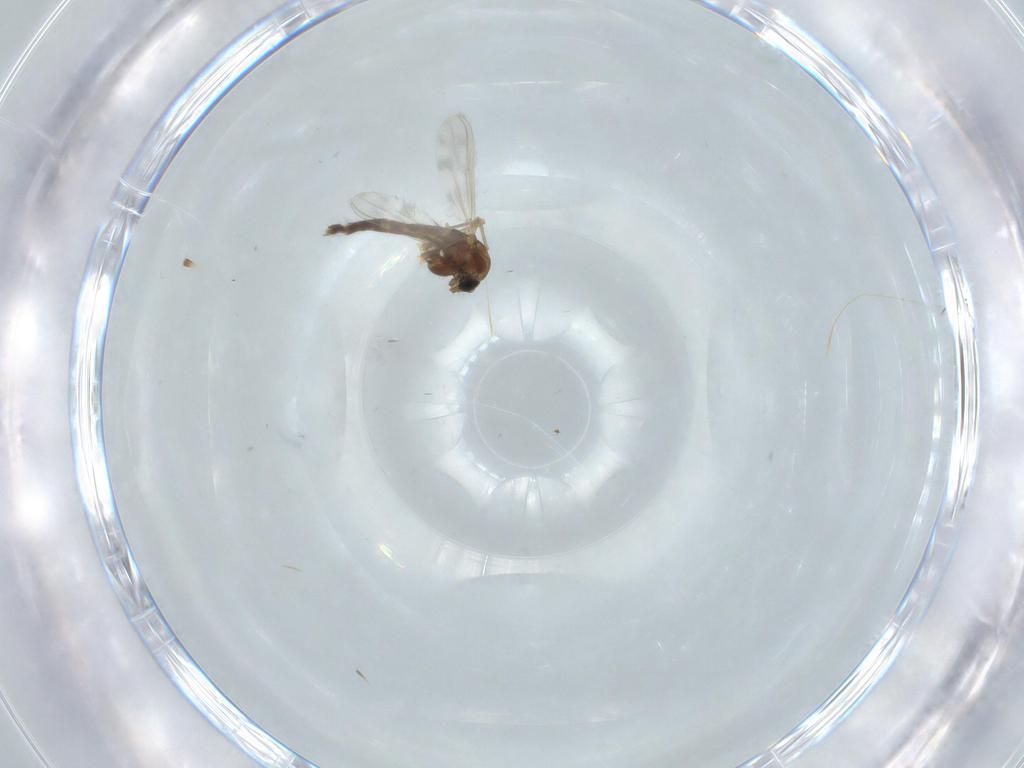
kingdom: Animalia
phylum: Arthropoda
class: Insecta
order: Diptera
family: Chironomidae
